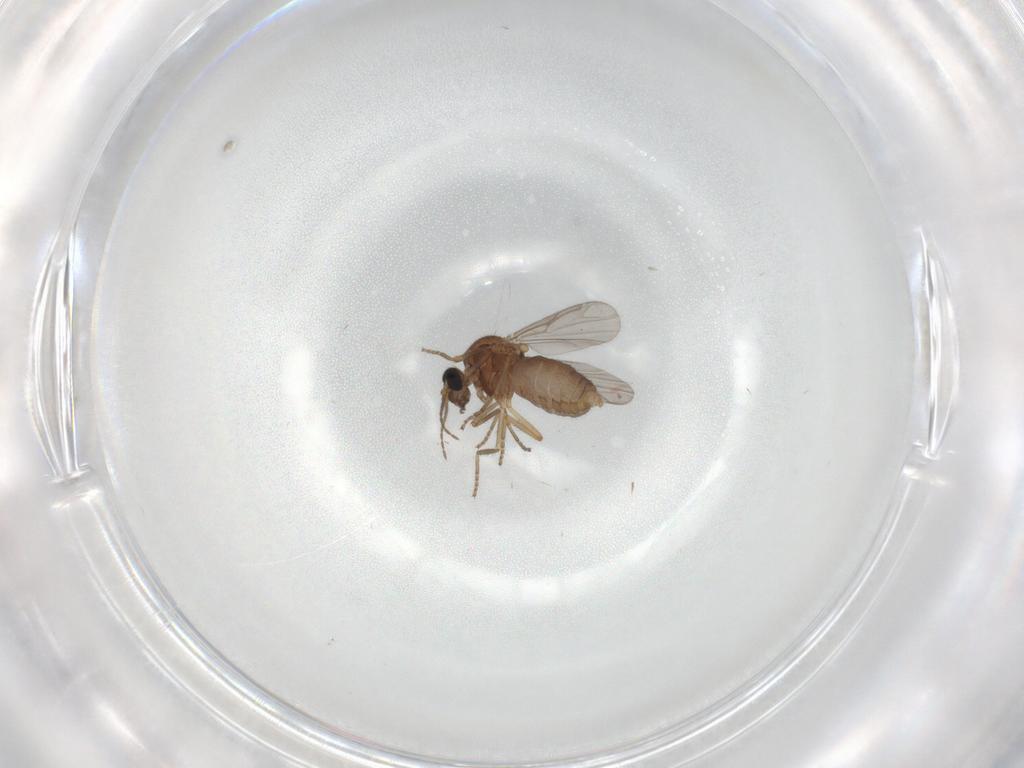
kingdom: Animalia
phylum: Arthropoda
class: Insecta
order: Diptera
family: Ceratopogonidae
